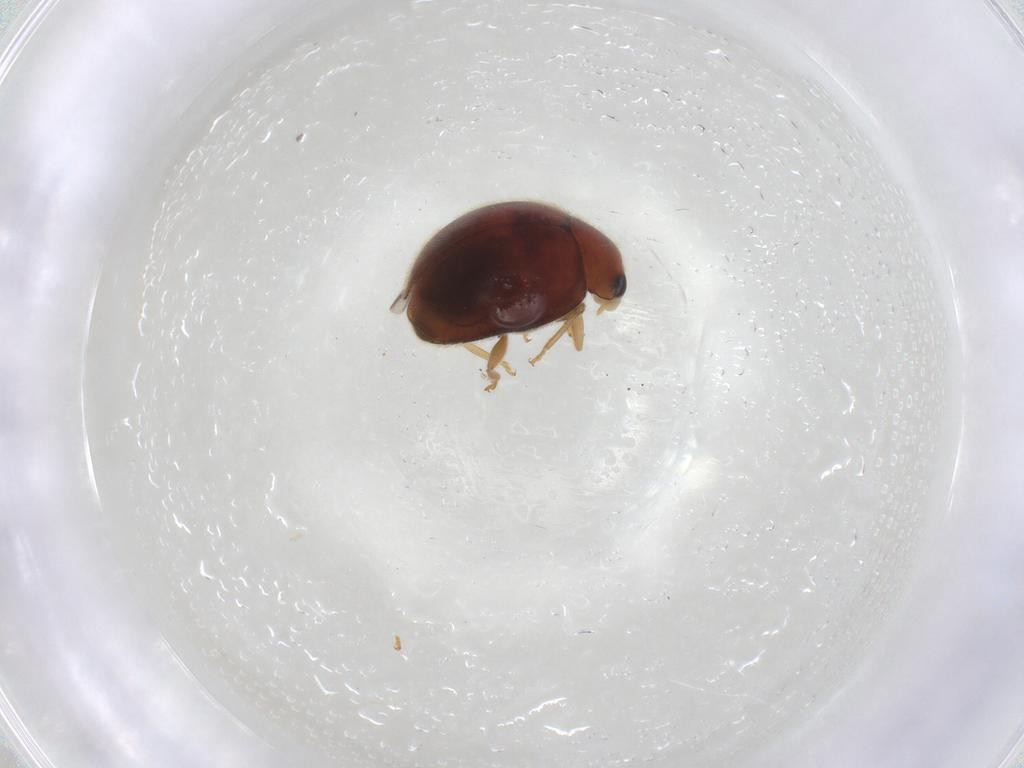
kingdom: Animalia
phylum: Arthropoda
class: Insecta
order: Coleoptera
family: Coccinellidae
